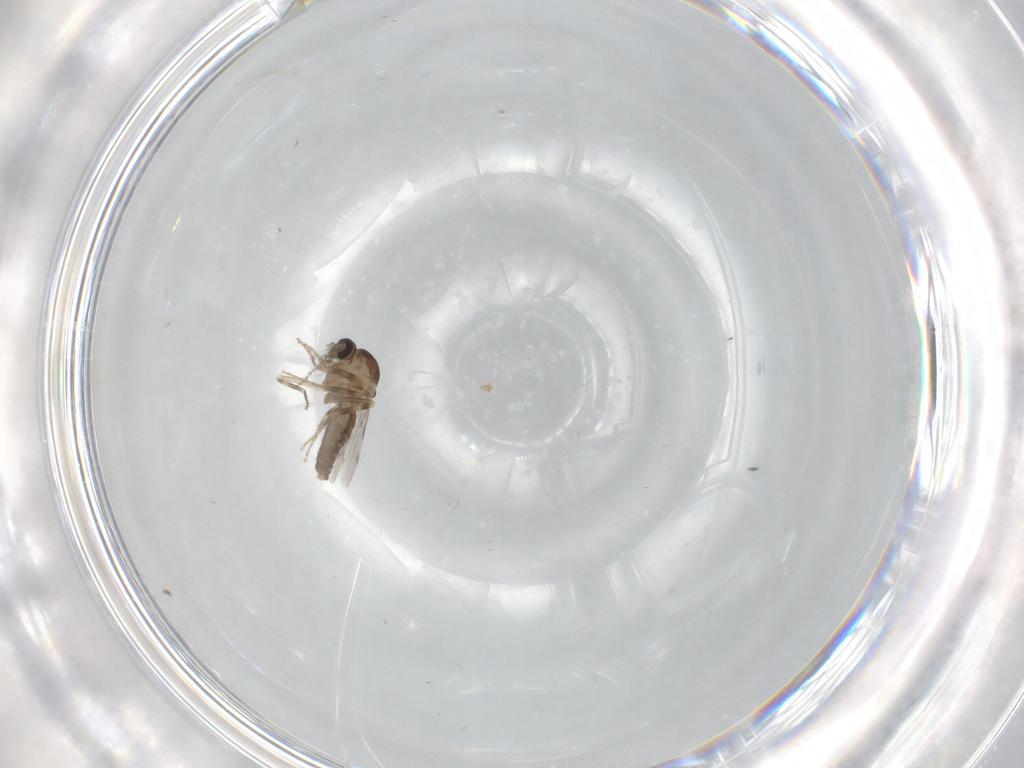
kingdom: Animalia
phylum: Arthropoda
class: Insecta
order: Diptera
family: Ceratopogonidae
